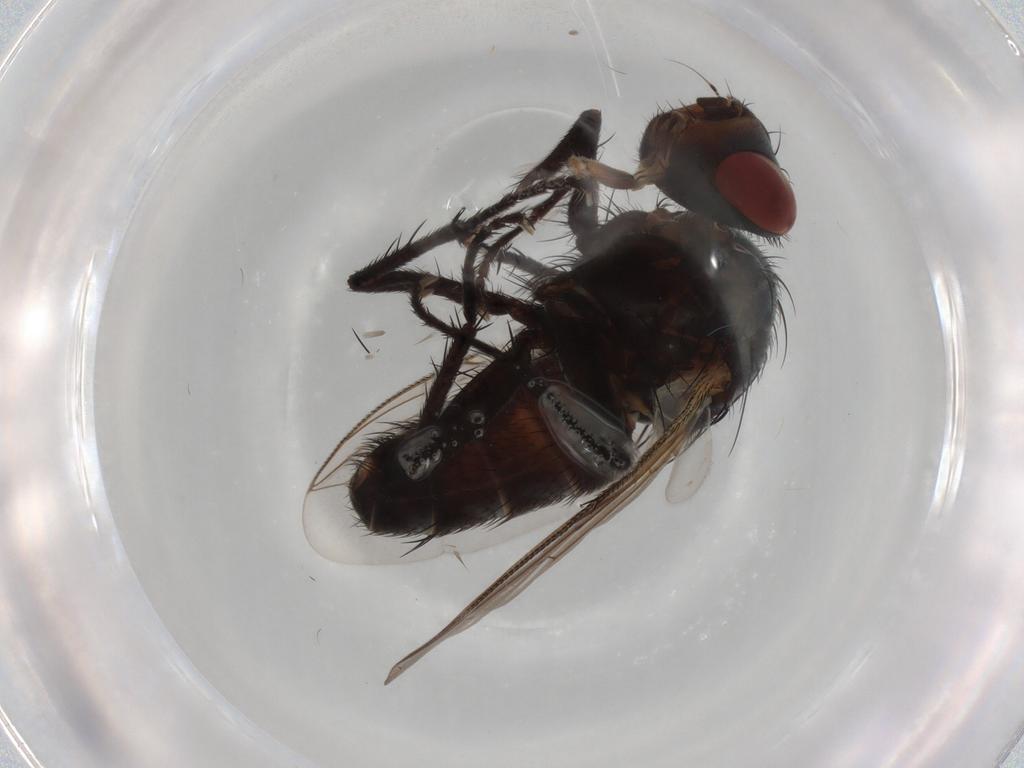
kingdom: Animalia
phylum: Arthropoda
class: Insecta
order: Diptera
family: Sarcophagidae
